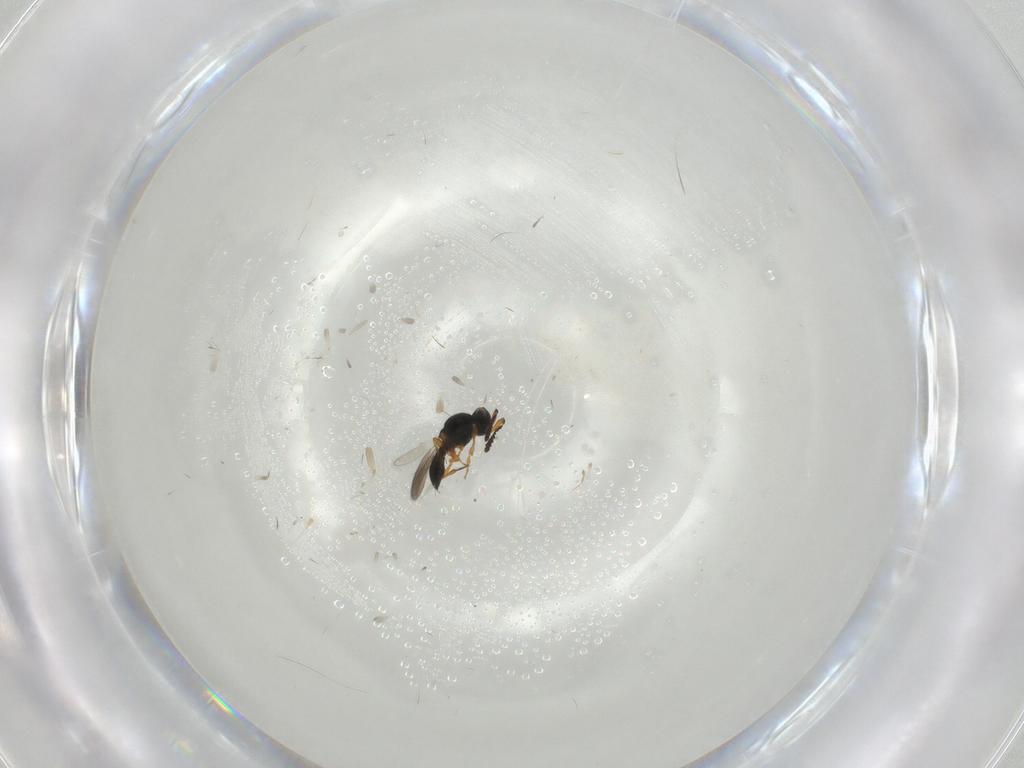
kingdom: Animalia
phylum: Arthropoda
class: Insecta
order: Hymenoptera
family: Platygastridae
